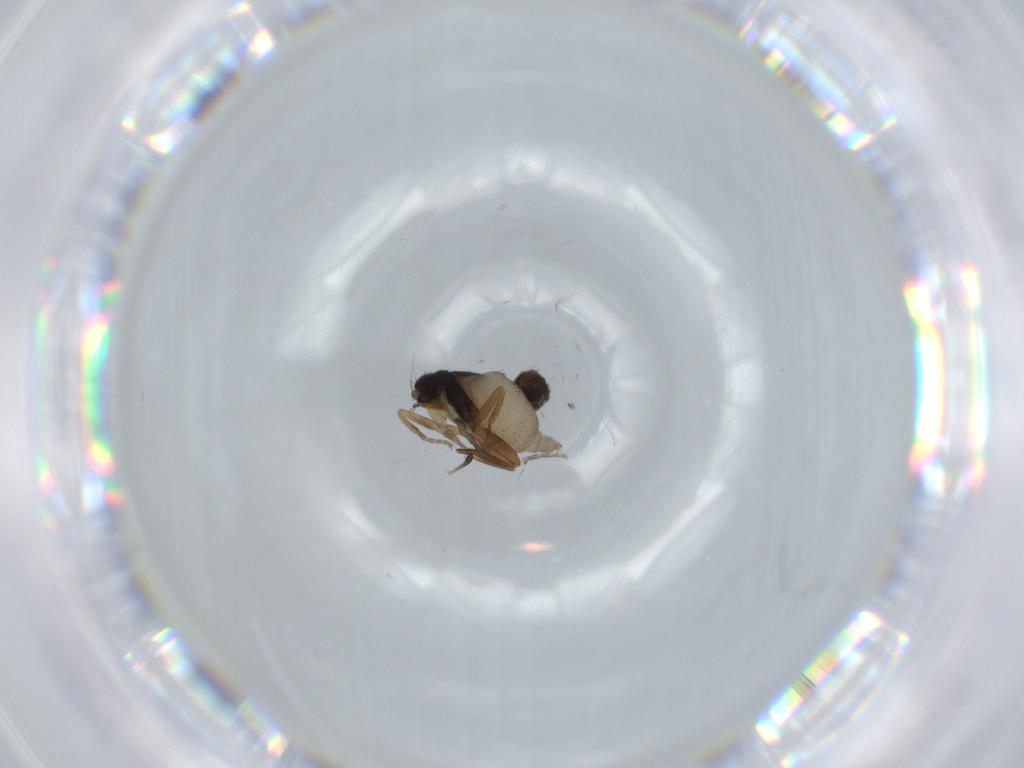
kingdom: Animalia
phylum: Arthropoda
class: Insecta
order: Diptera
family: Phoridae
